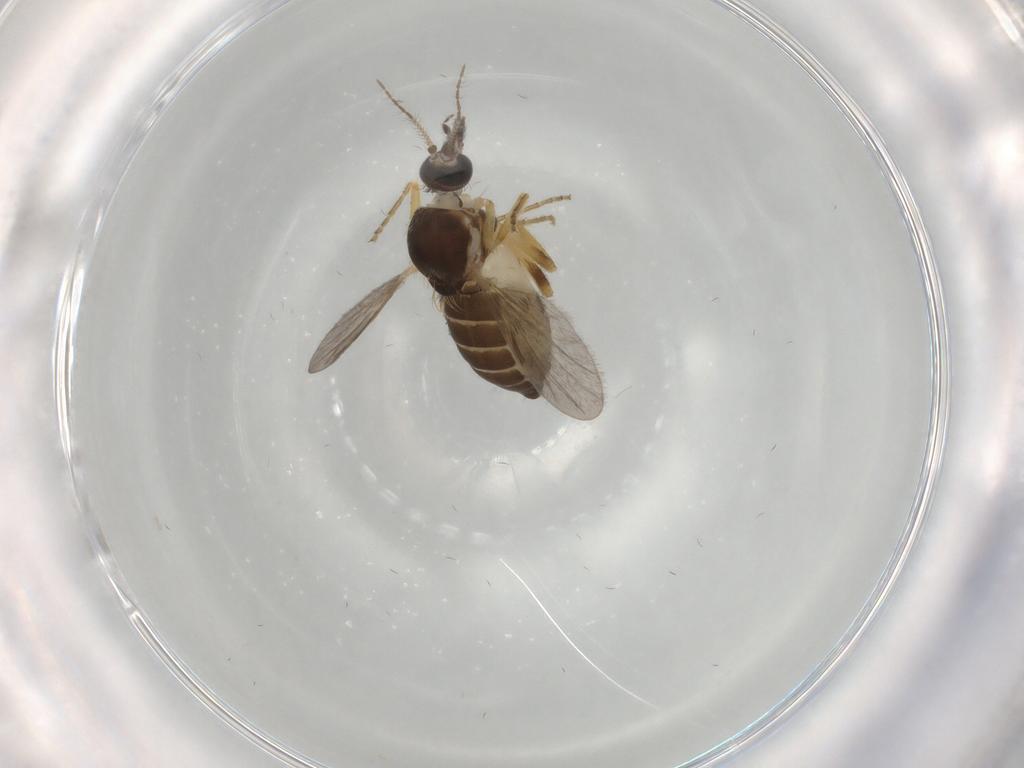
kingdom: Animalia
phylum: Arthropoda
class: Insecta
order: Diptera
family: Ceratopogonidae
